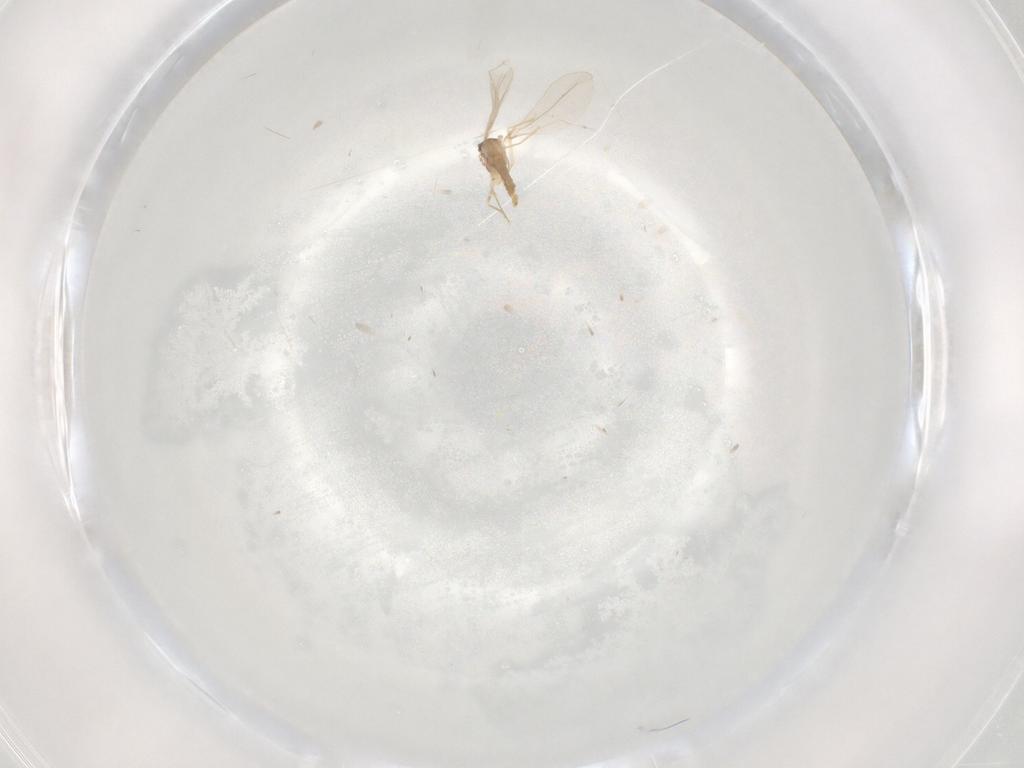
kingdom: Animalia
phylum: Arthropoda
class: Insecta
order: Diptera
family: Cecidomyiidae
